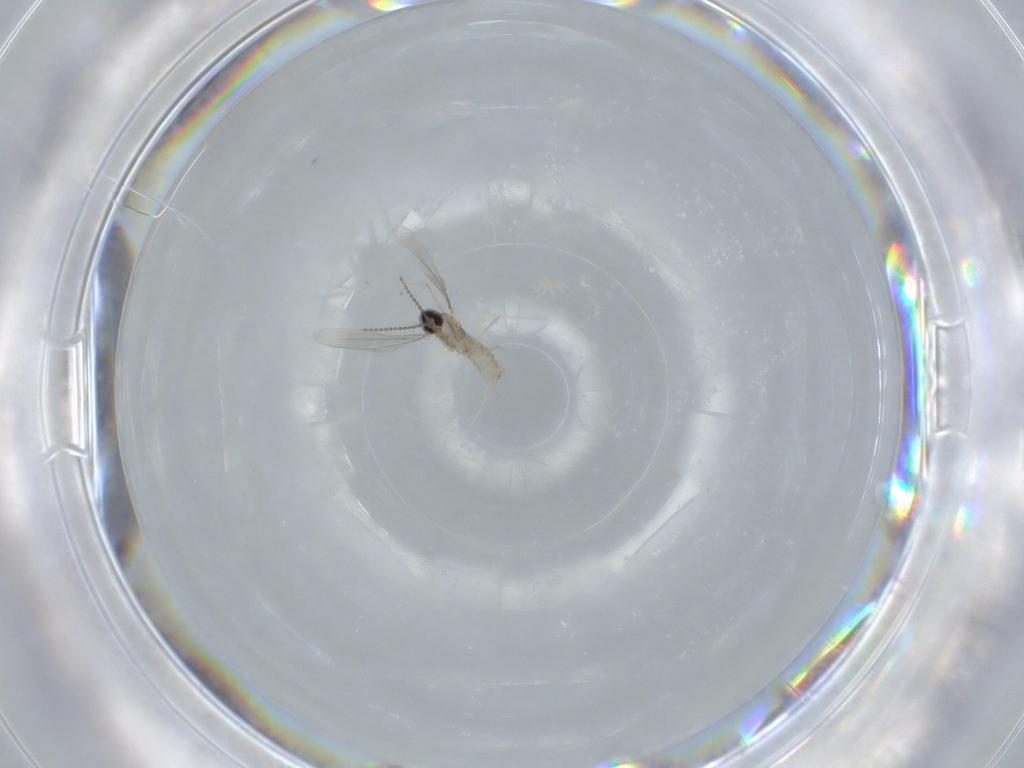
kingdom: Animalia
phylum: Arthropoda
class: Insecta
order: Diptera
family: Cecidomyiidae
